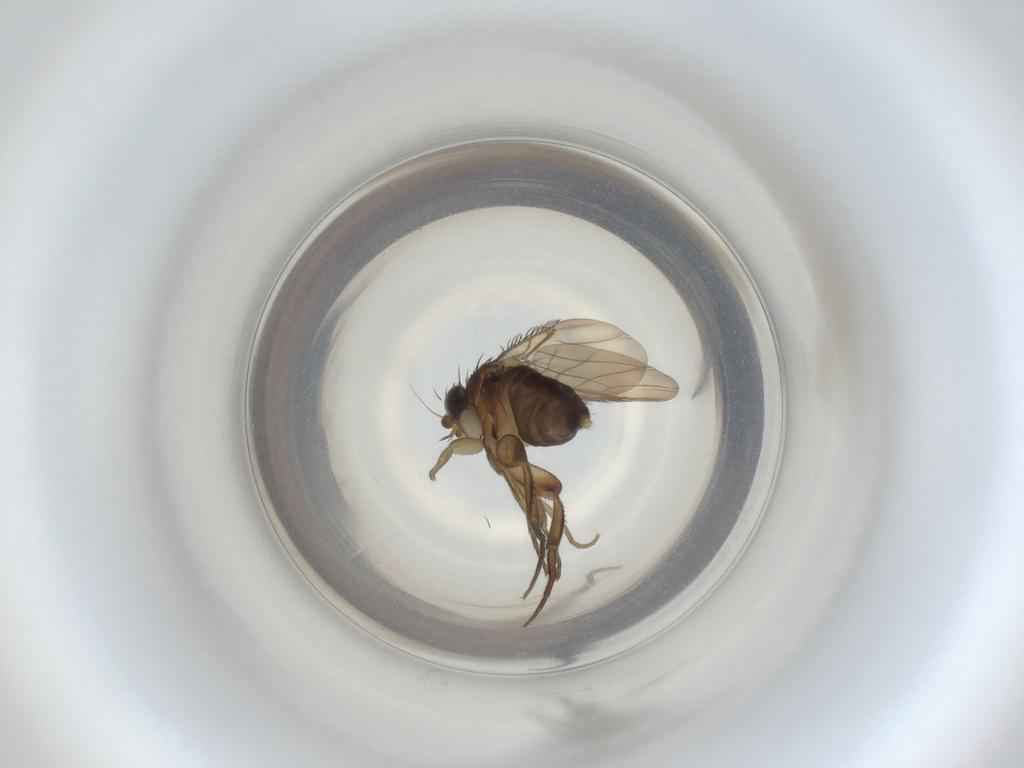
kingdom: Animalia
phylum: Arthropoda
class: Insecta
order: Diptera
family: Phoridae
